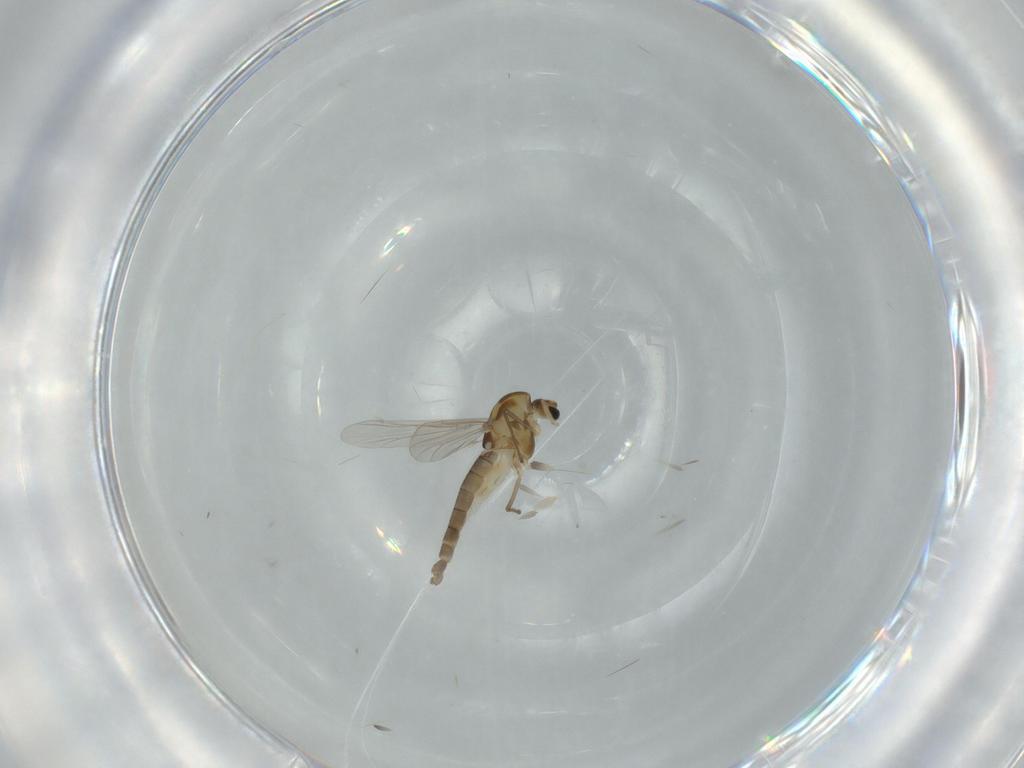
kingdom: Animalia
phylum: Arthropoda
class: Insecta
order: Diptera
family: Chironomidae
